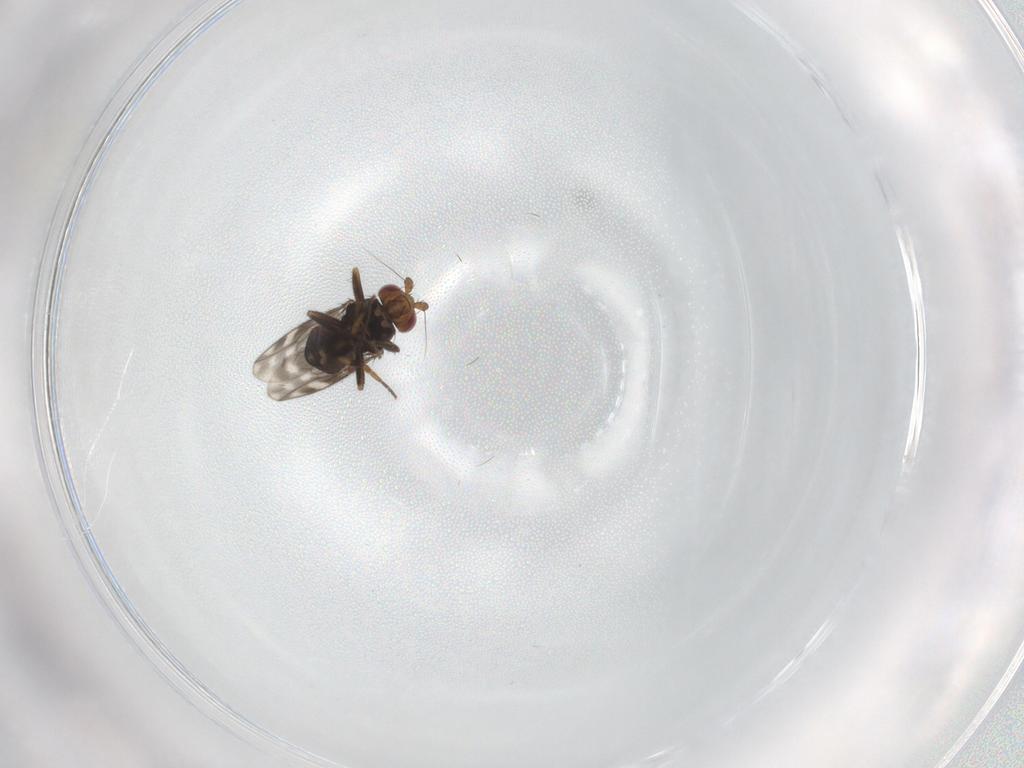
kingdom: Animalia
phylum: Arthropoda
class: Insecta
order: Diptera
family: Sphaeroceridae
